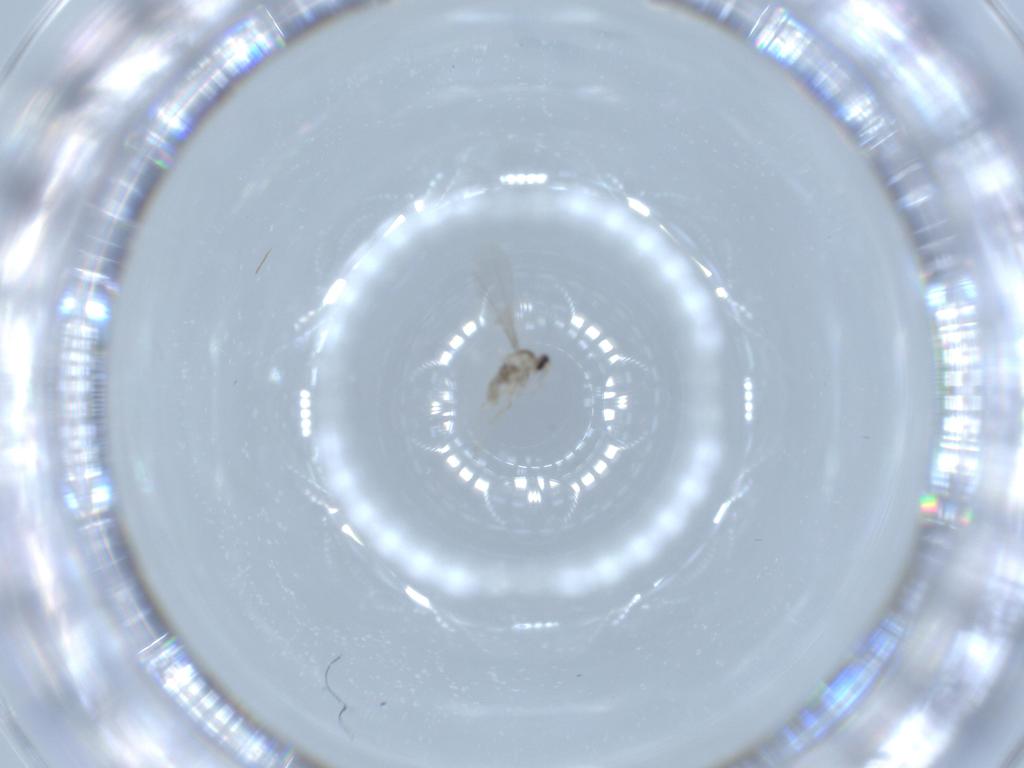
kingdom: Animalia
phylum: Arthropoda
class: Insecta
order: Diptera
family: Cecidomyiidae
